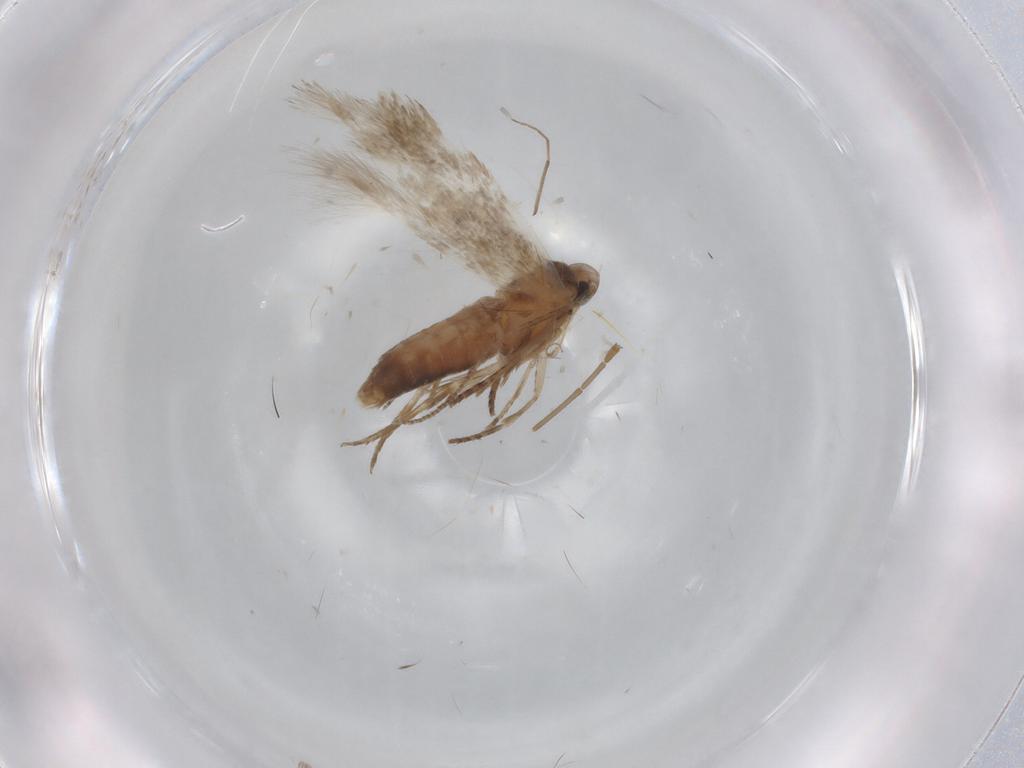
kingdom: Animalia
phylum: Arthropoda
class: Insecta
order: Lepidoptera
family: Cosmopterigidae
